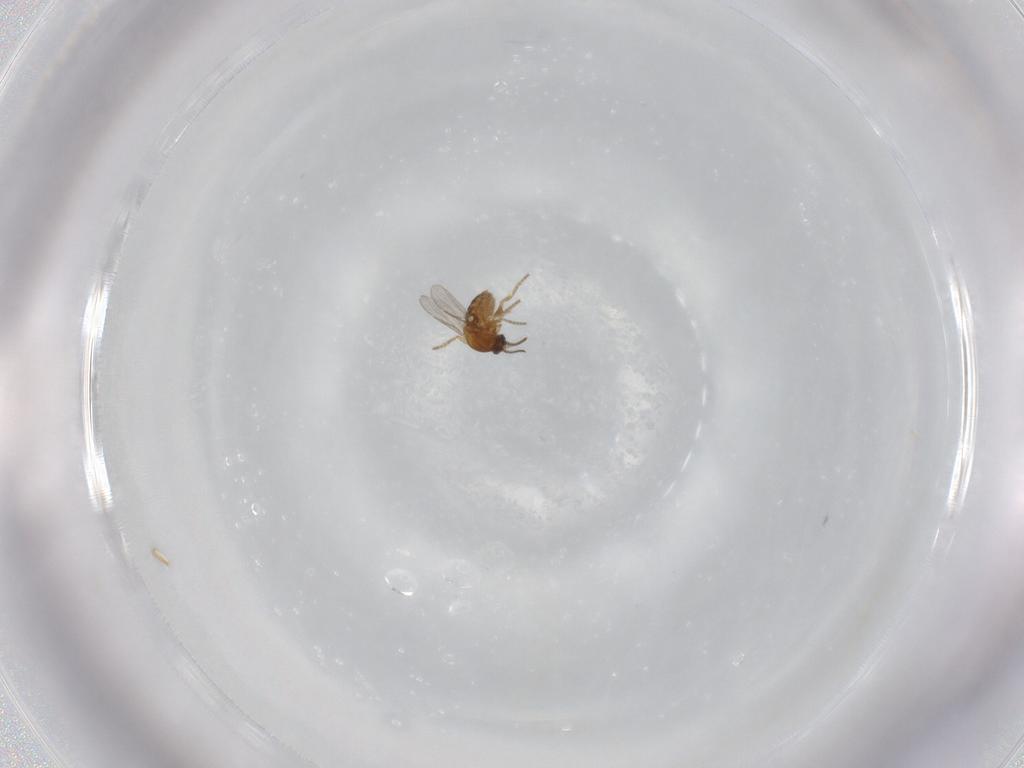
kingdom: Animalia
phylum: Arthropoda
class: Insecta
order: Diptera
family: Ceratopogonidae
